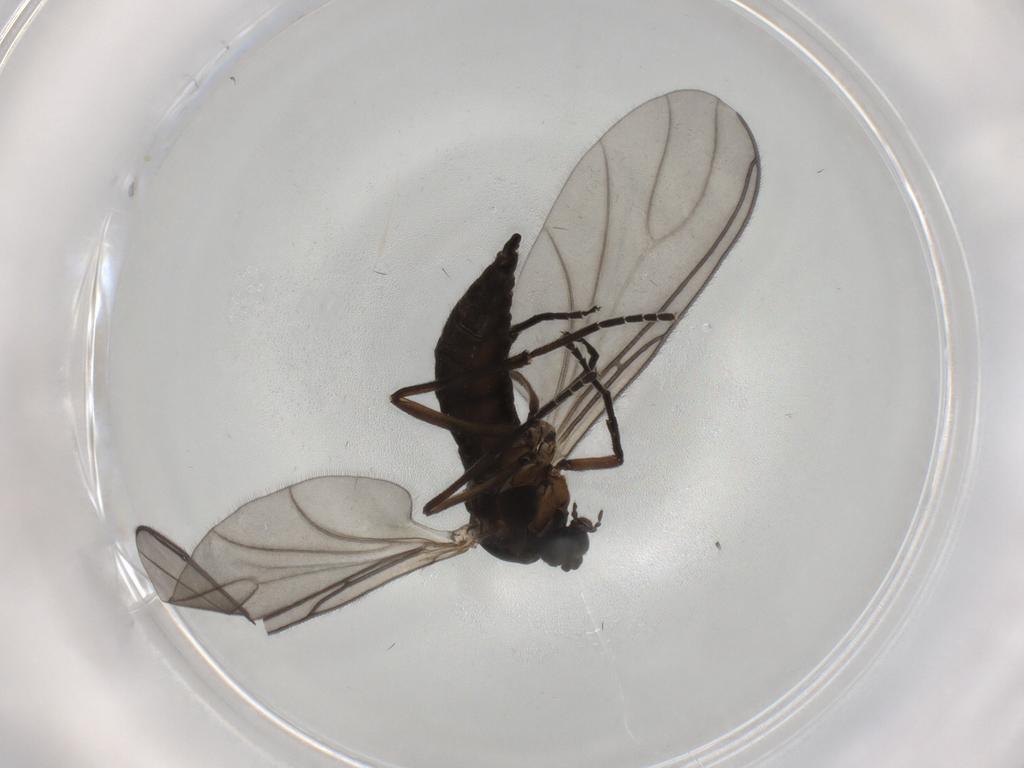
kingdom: Animalia
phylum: Arthropoda
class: Insecta
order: Diptera
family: Sciaridae
